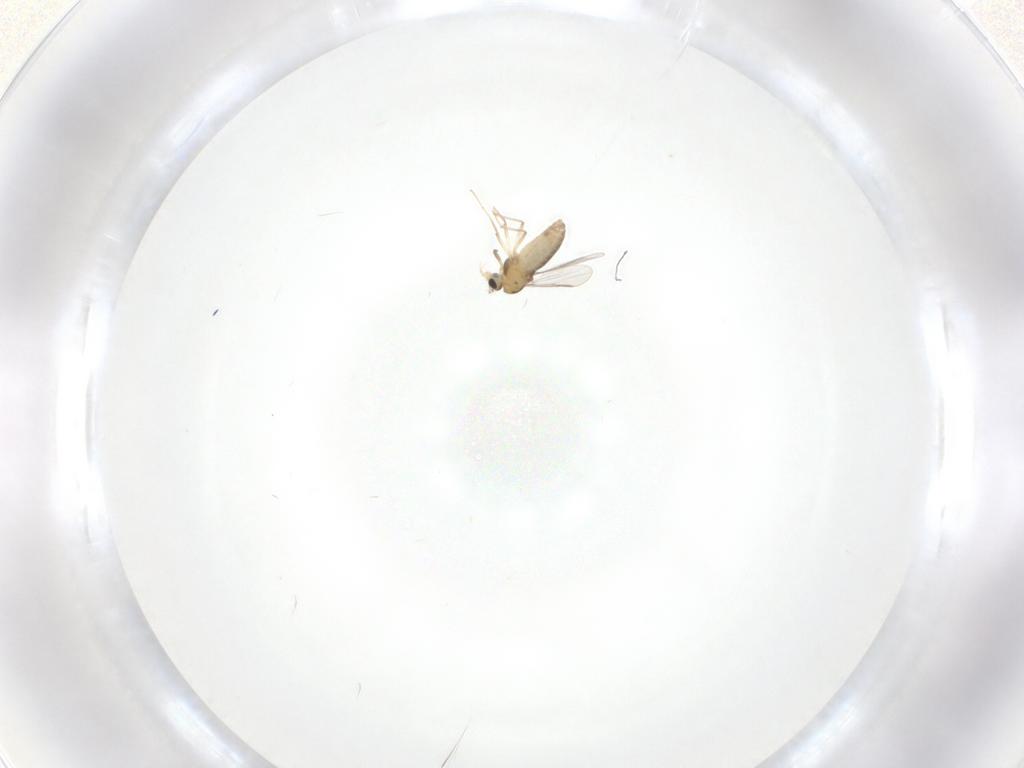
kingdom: Animalia
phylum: Arthropoda
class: Insecta
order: Diptera
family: Chironomidae
